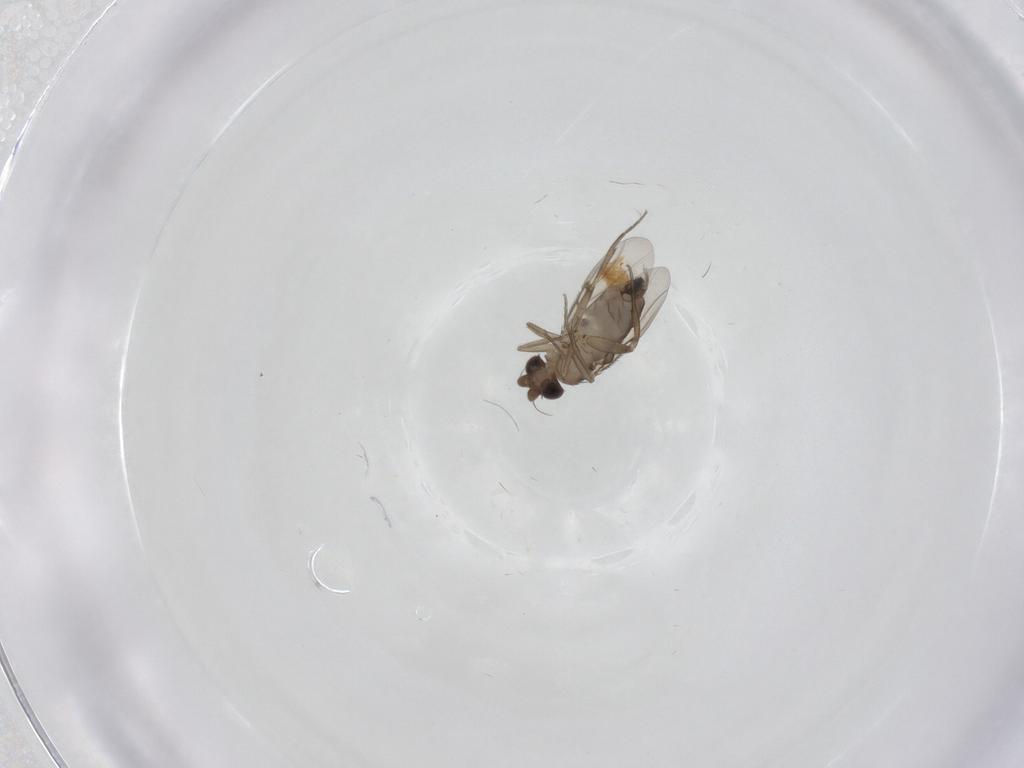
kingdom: Animalia
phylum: Arthropoda
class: Insecta
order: Diptera
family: Phoridae
